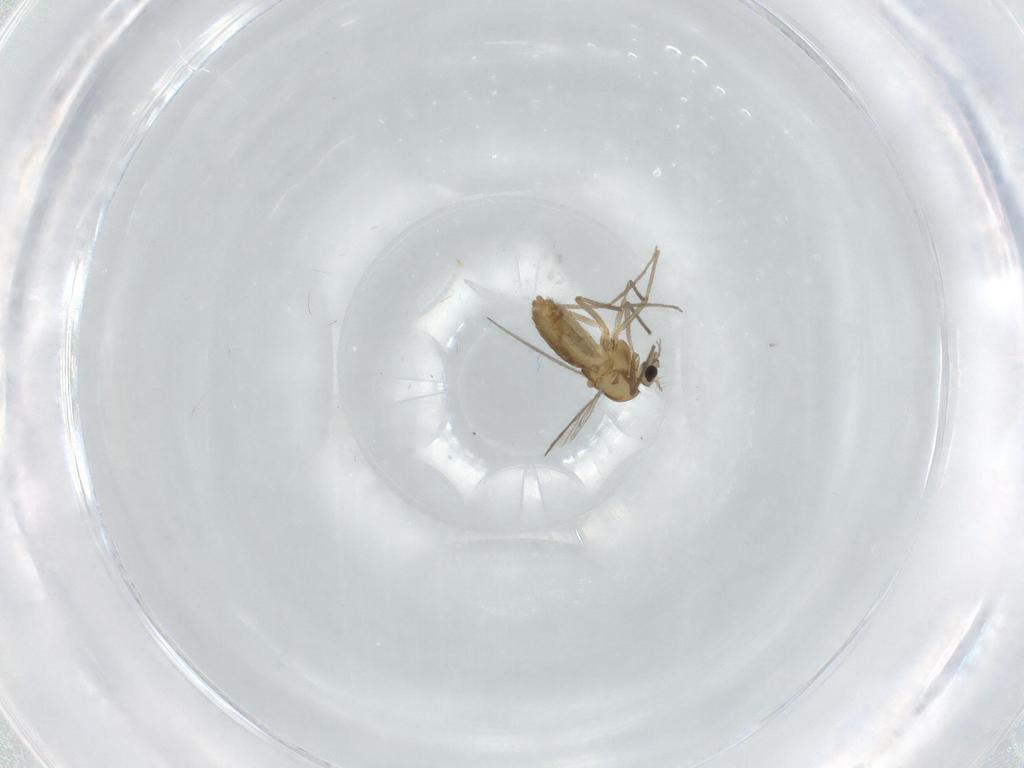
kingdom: Animalia
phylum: Arthropoda
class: Insecta
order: Diptera
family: Chironomidae
